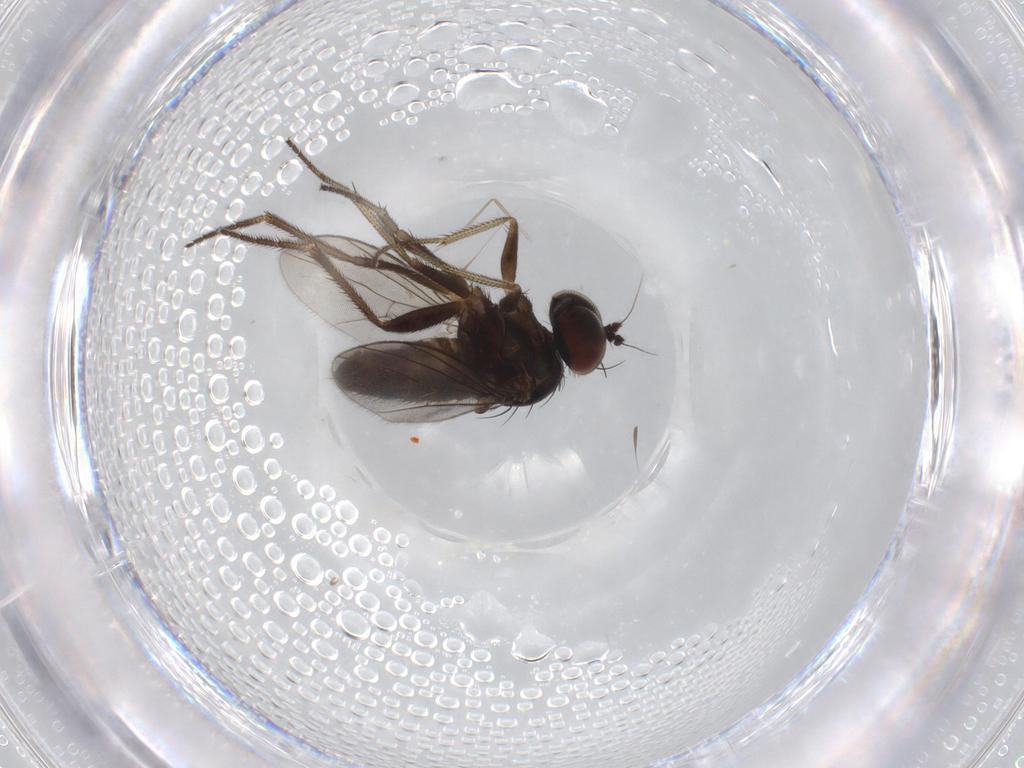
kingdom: Animalia
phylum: Arthropoda
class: Insecta
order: Diptera
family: Dolichopodidae
